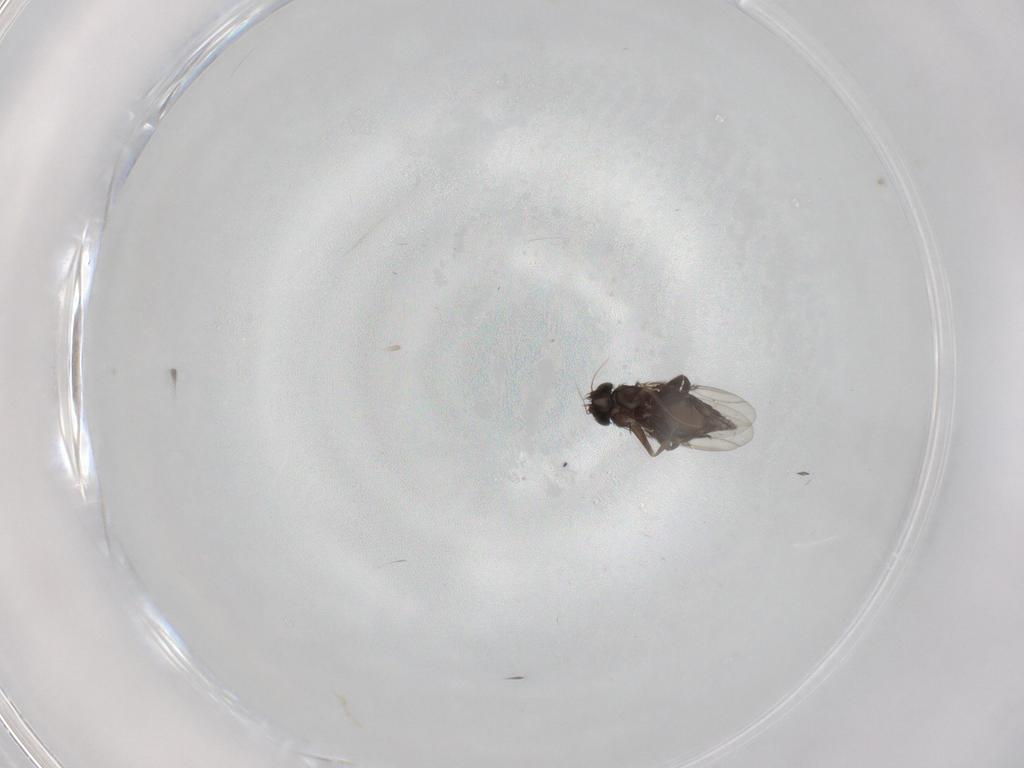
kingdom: Animalia
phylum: Arthropoda
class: Insecta
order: Diptera
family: Phoridae
